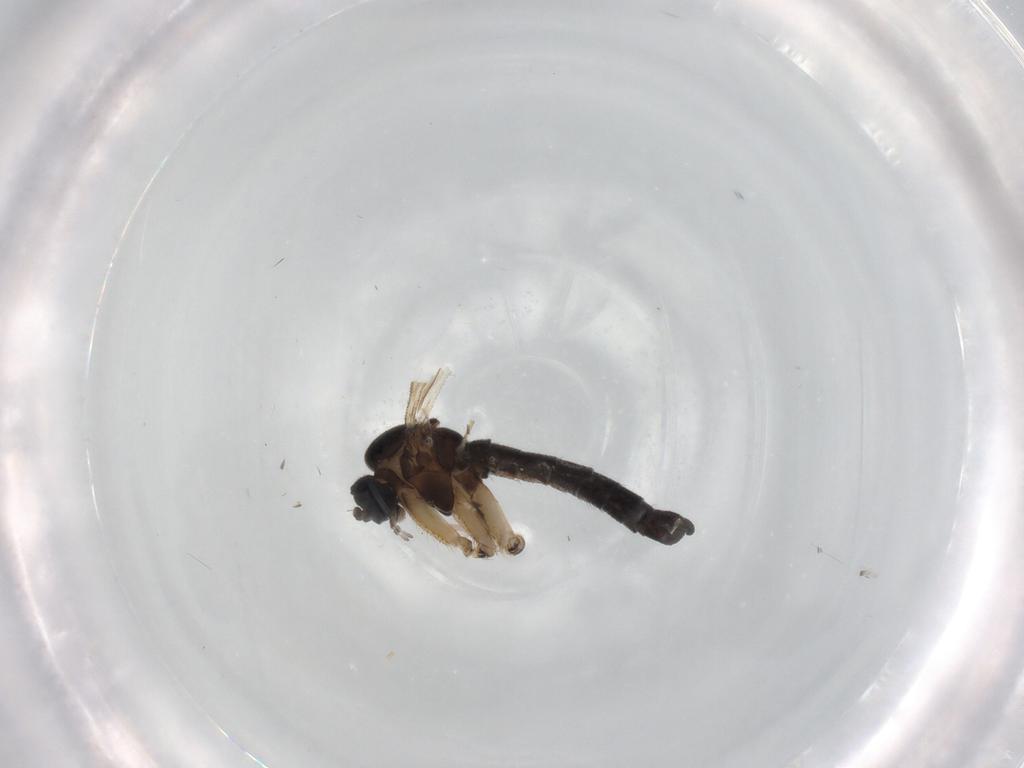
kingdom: Animalia
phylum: Arthropoda
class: Insecta
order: Diptera
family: Sciaridae
